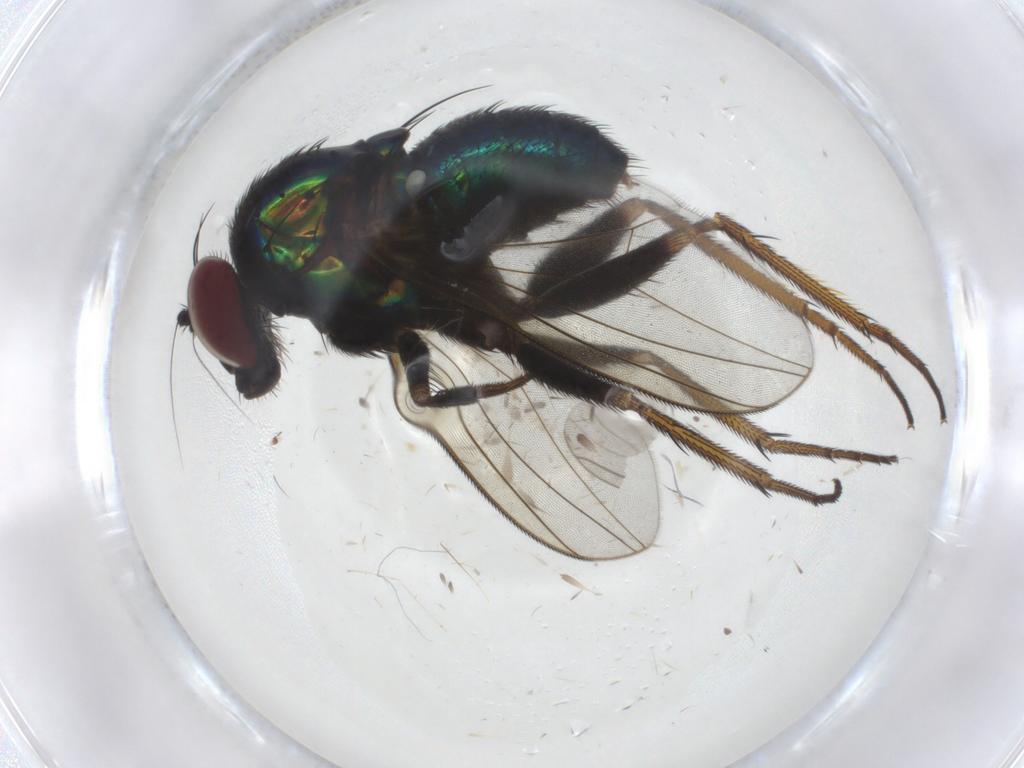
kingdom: Animalia
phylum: Arthropoda
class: Insecta
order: Diptera
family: Dolichopodidae
